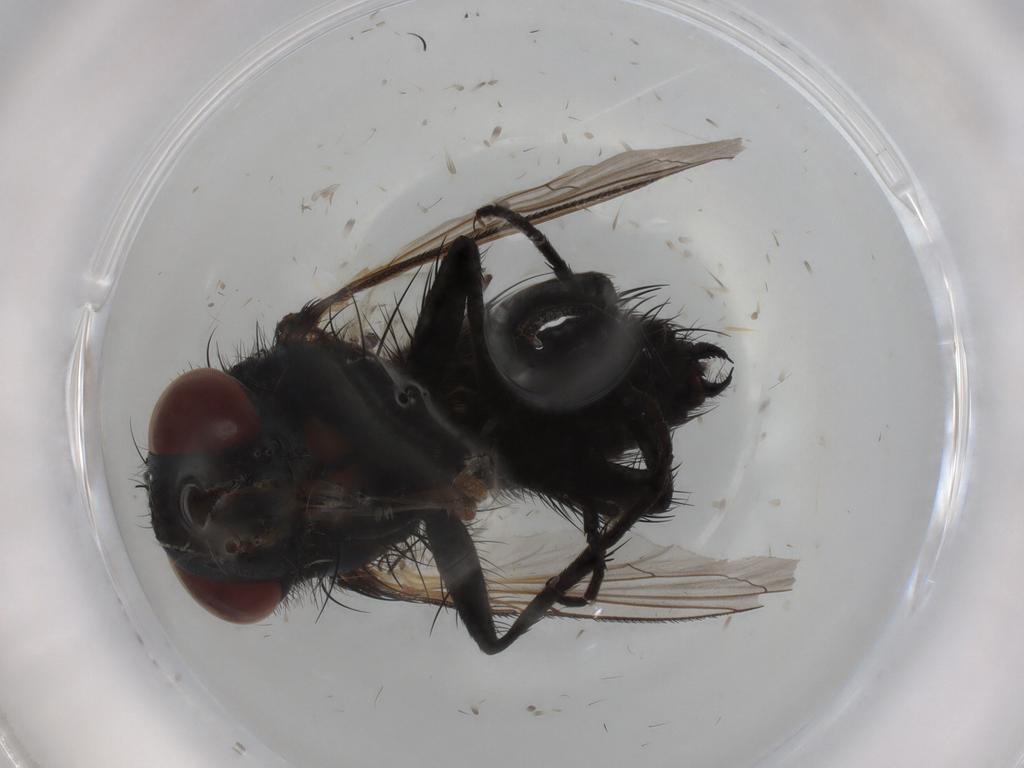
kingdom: Animalia
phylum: Arthropoda
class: Insecta
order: Diptera
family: Tachinidae
